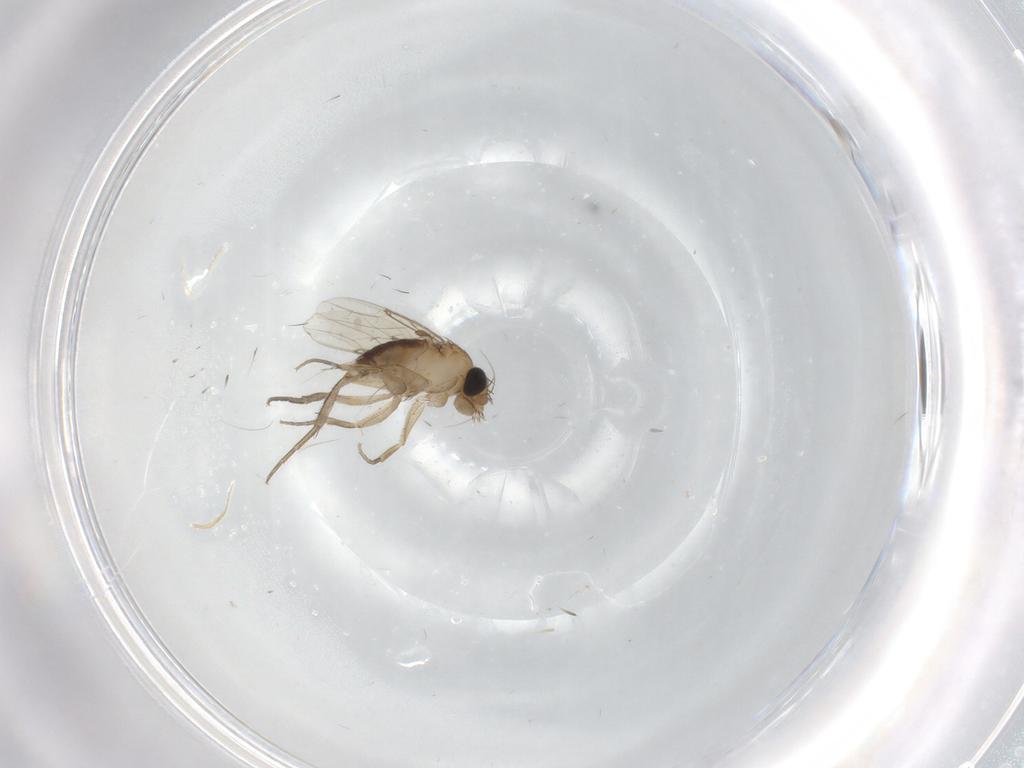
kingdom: Animalia
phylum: Arthropoda
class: Insecta
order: Diptera
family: Phoridae
